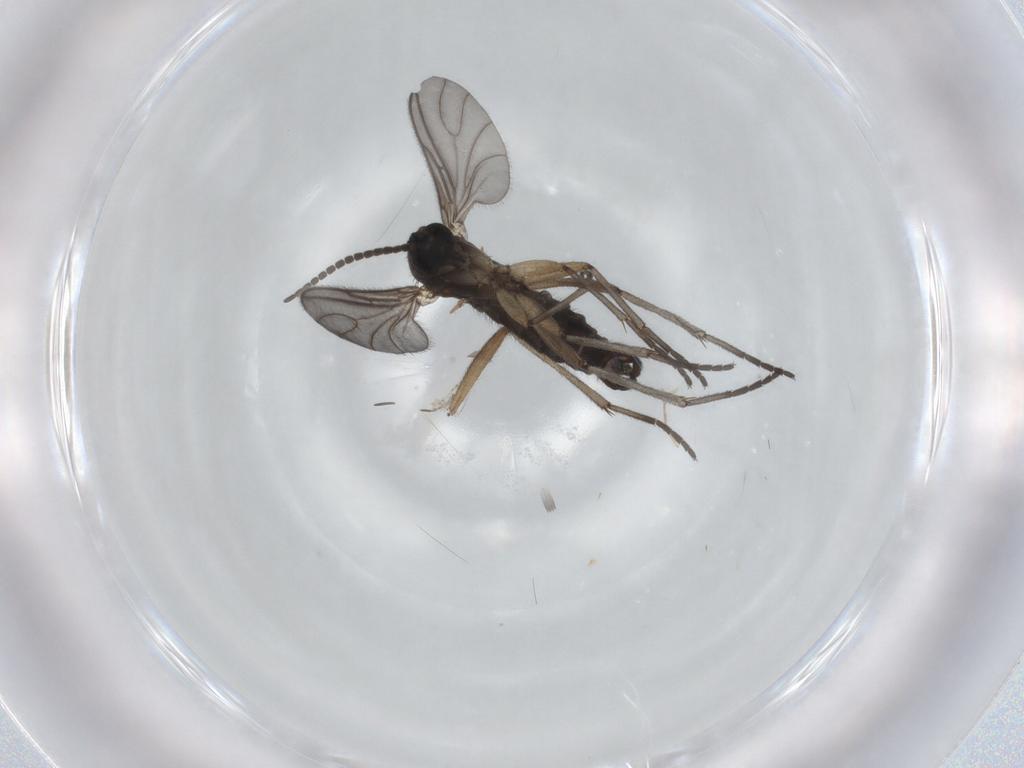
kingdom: Animalia
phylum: Arthropoda
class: Insecta
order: Diptera
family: Sciaridae
